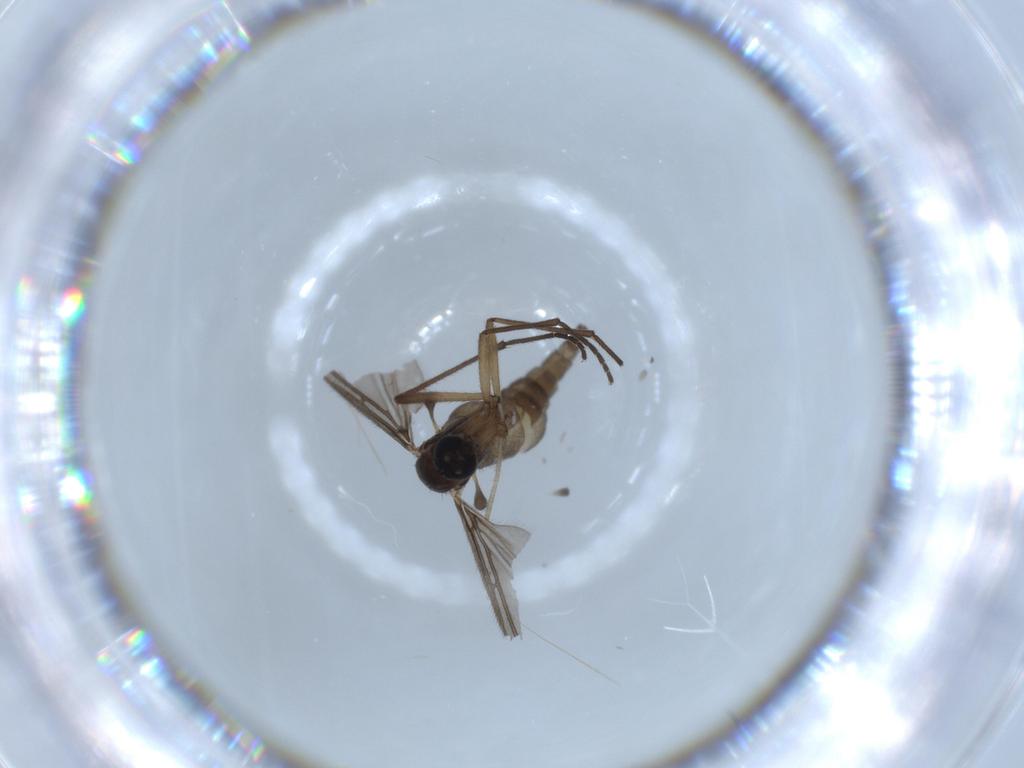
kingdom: Animalia
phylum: Arthropoda
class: Insecta
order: Diptera
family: Sciaridae
